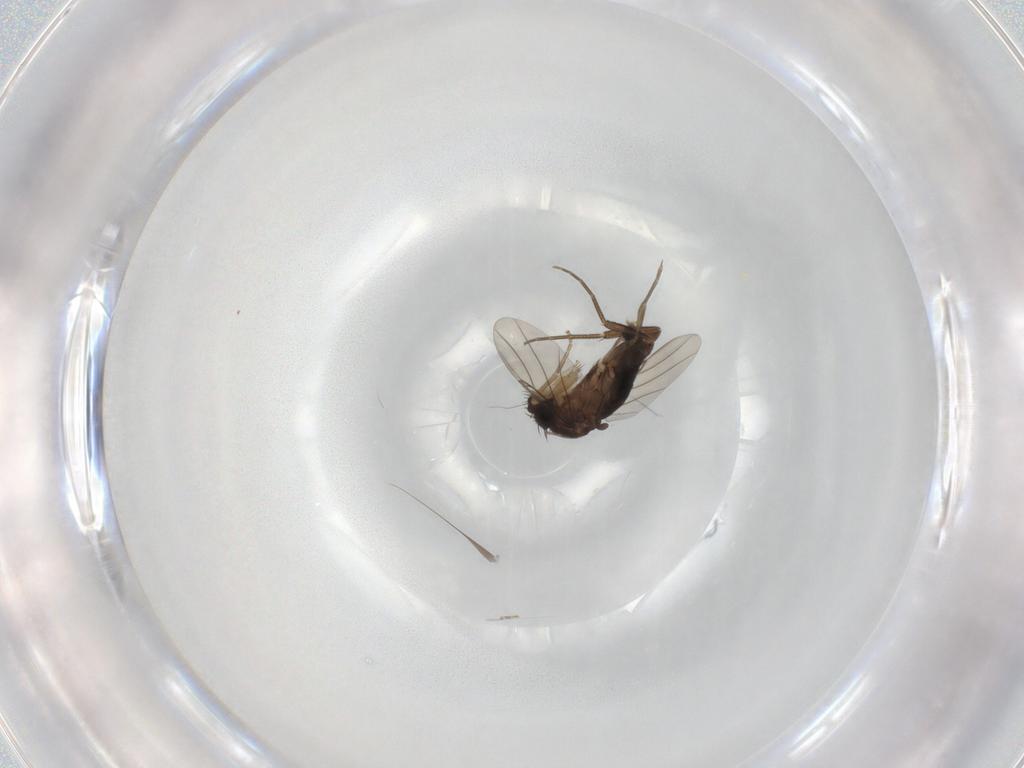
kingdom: Animalia
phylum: Arthropoda
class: Insecta
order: Diptera
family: Phoridae
